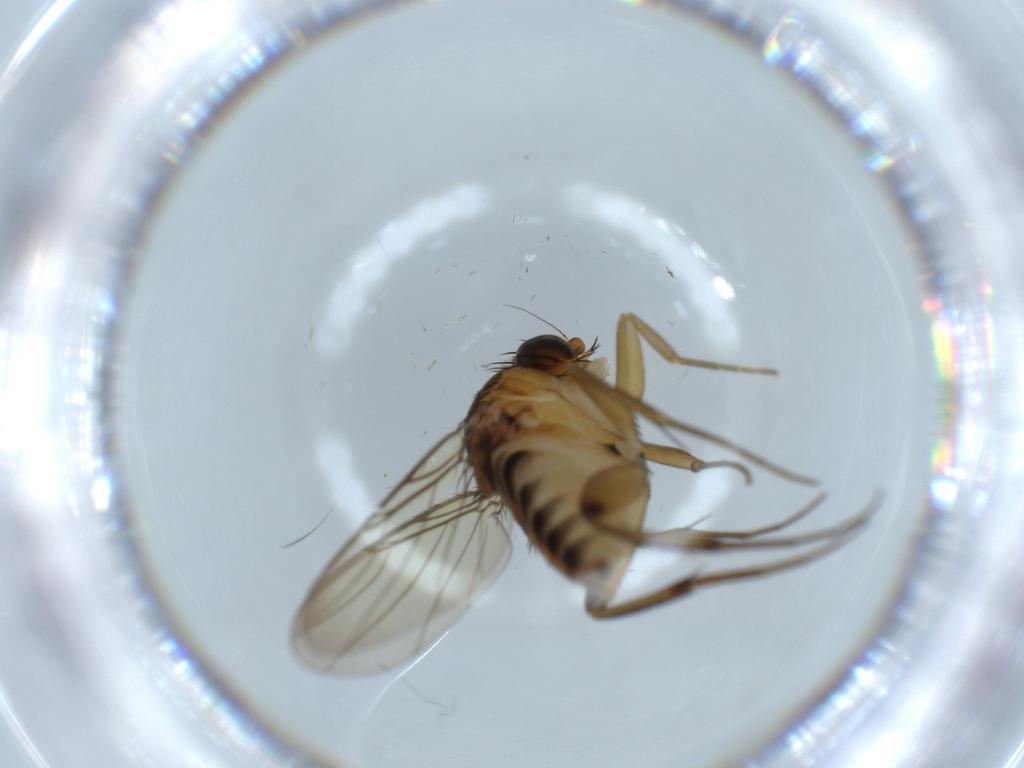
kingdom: Animalia
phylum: Arthropoda
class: Insecta
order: Diptera
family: Phoridae
